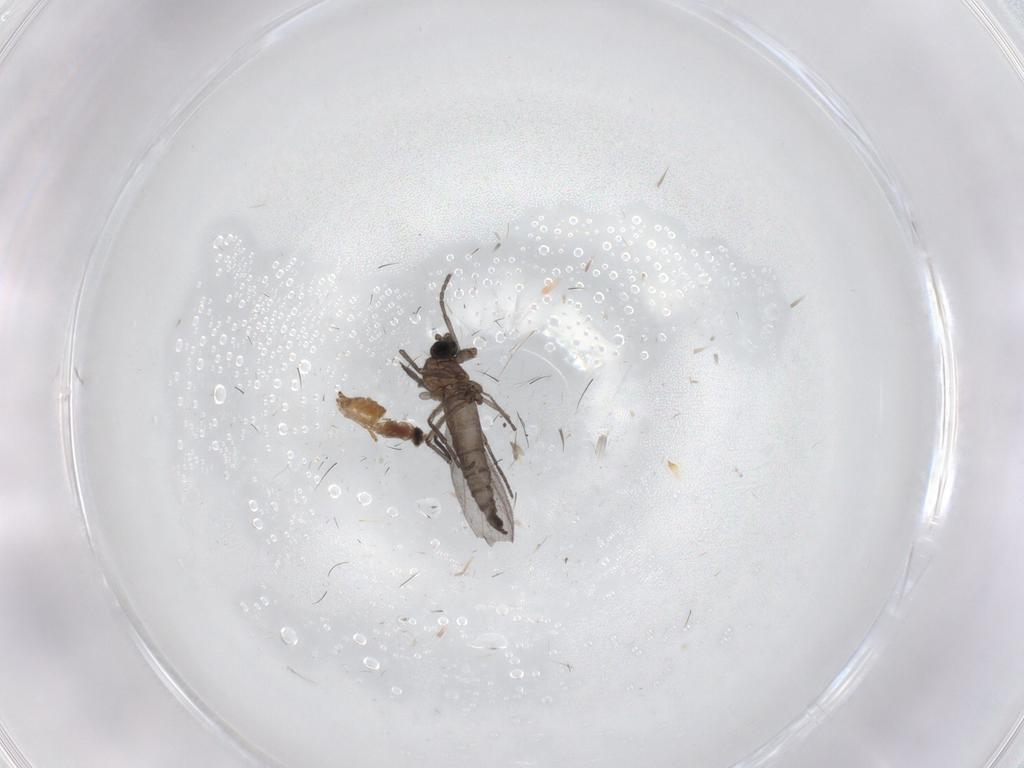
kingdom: Animalia
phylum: Arthropoda
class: Insecta
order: Diptera
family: Sciaridae
